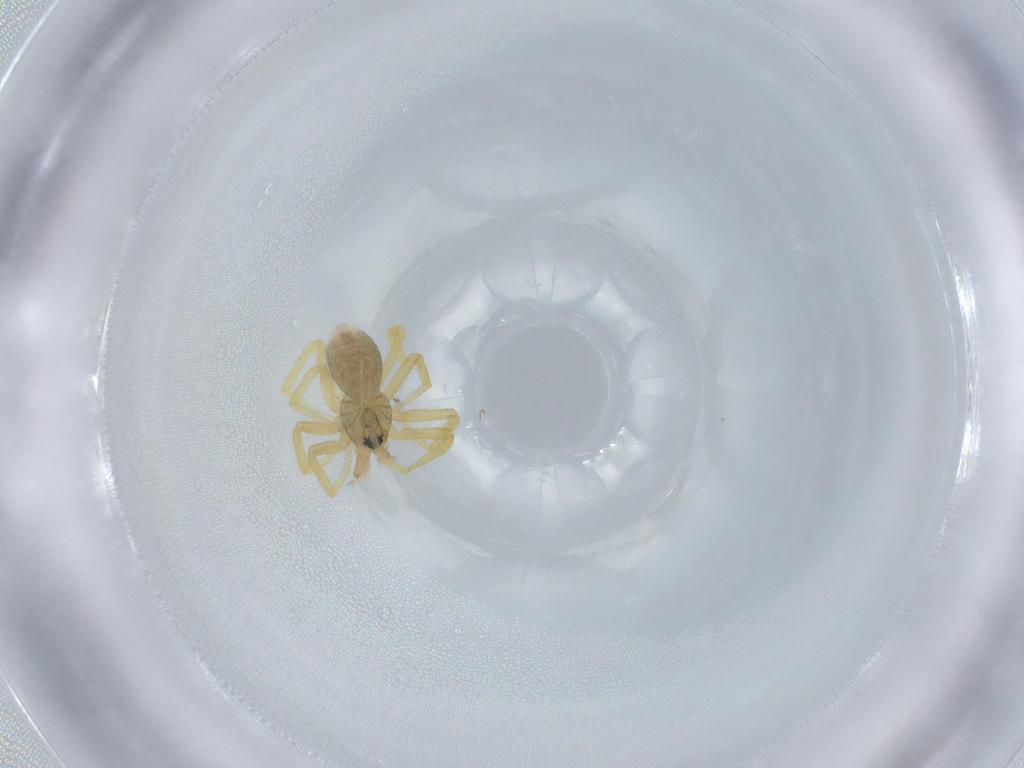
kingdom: Animalia
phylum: Arthropoda
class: Arachnida
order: Araneae
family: Linyphiidae
